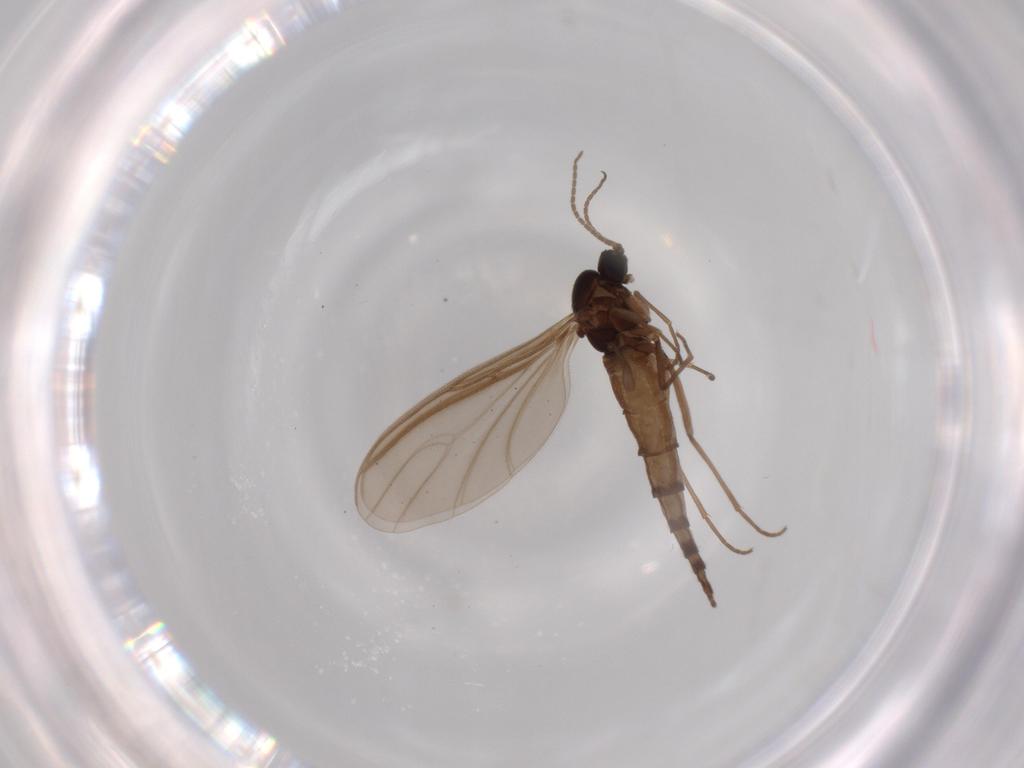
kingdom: Animalia
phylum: Arthropoda
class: Insecta
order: Diptera
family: Sciaridae
